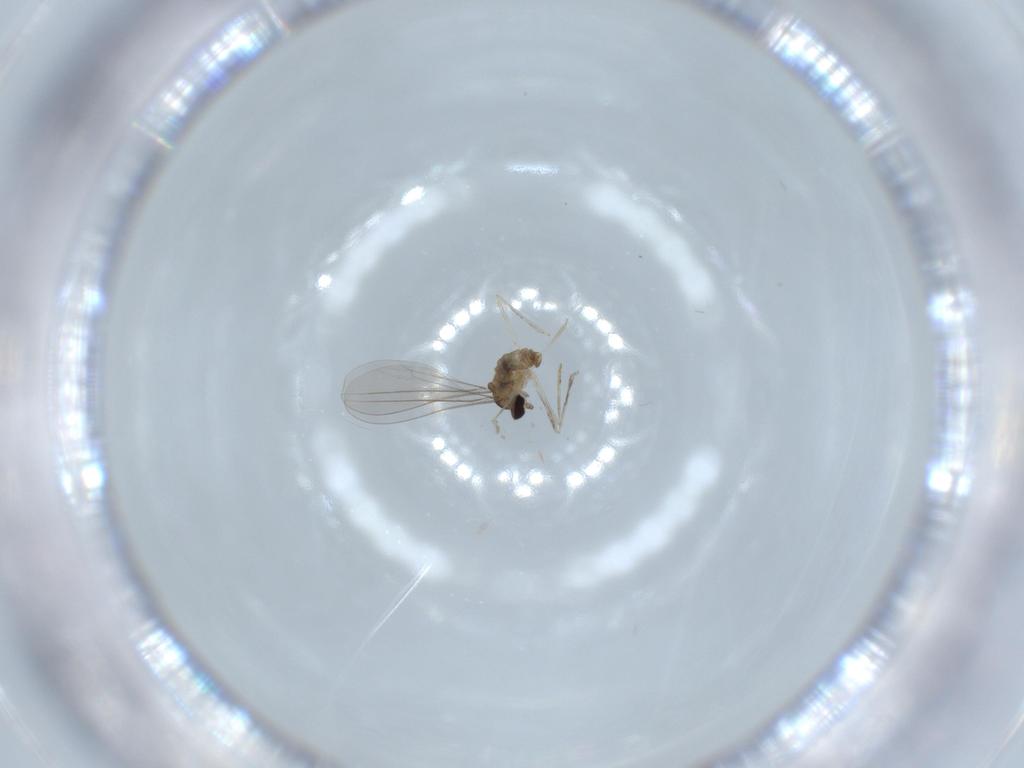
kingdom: Animalia
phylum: Arthropoda
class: Insecta
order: Diptera
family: Cecidomyiidae
